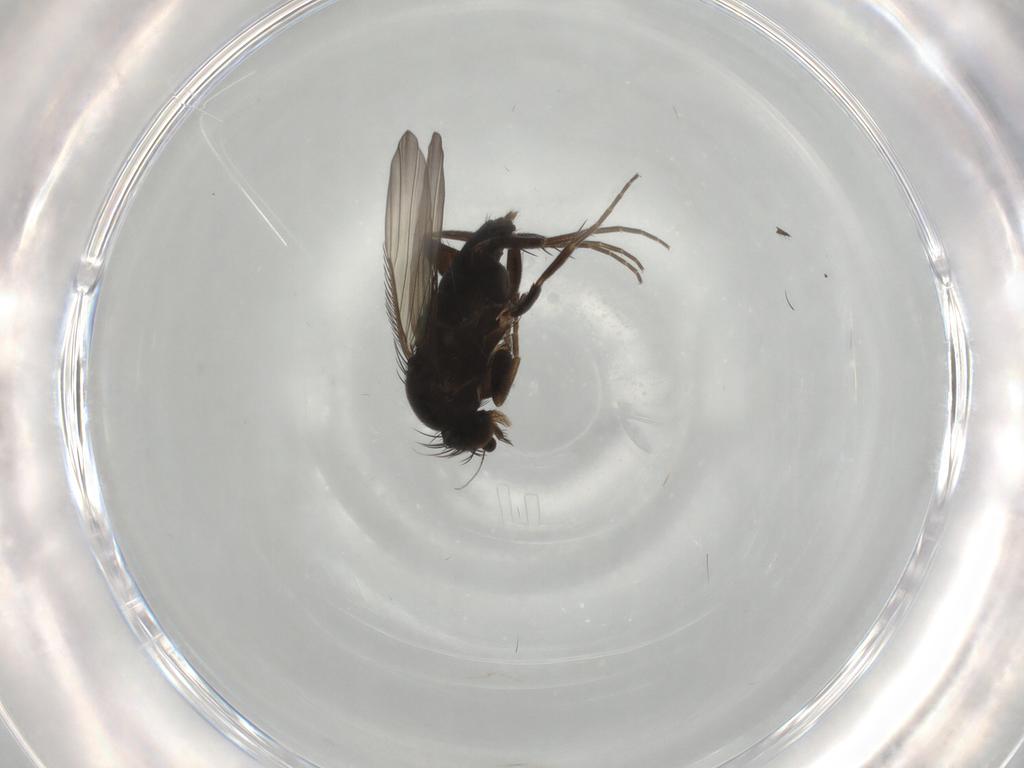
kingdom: Animalia
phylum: Arthropoda
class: Insecta
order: Diptera
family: Phoridae
